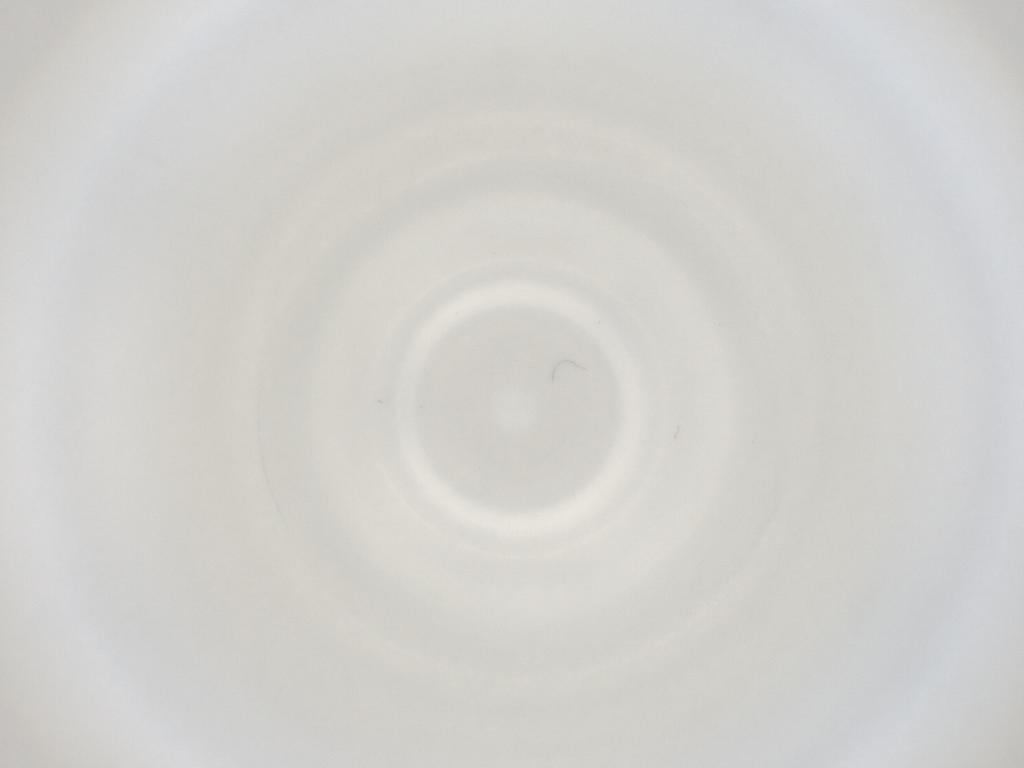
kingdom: Animalia
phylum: Arthropoda
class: Insecta
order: Diptera
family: Cecidomyiidae
